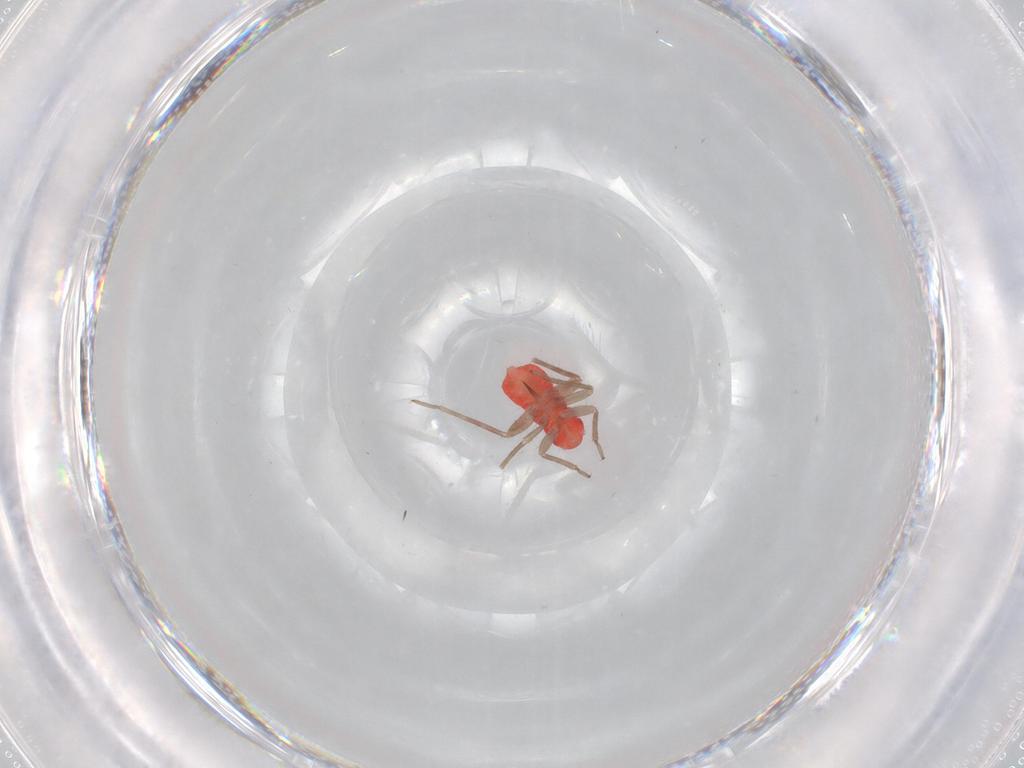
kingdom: Animalia
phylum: Arthropoda
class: Insecta
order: Hemiptera
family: Miridae
